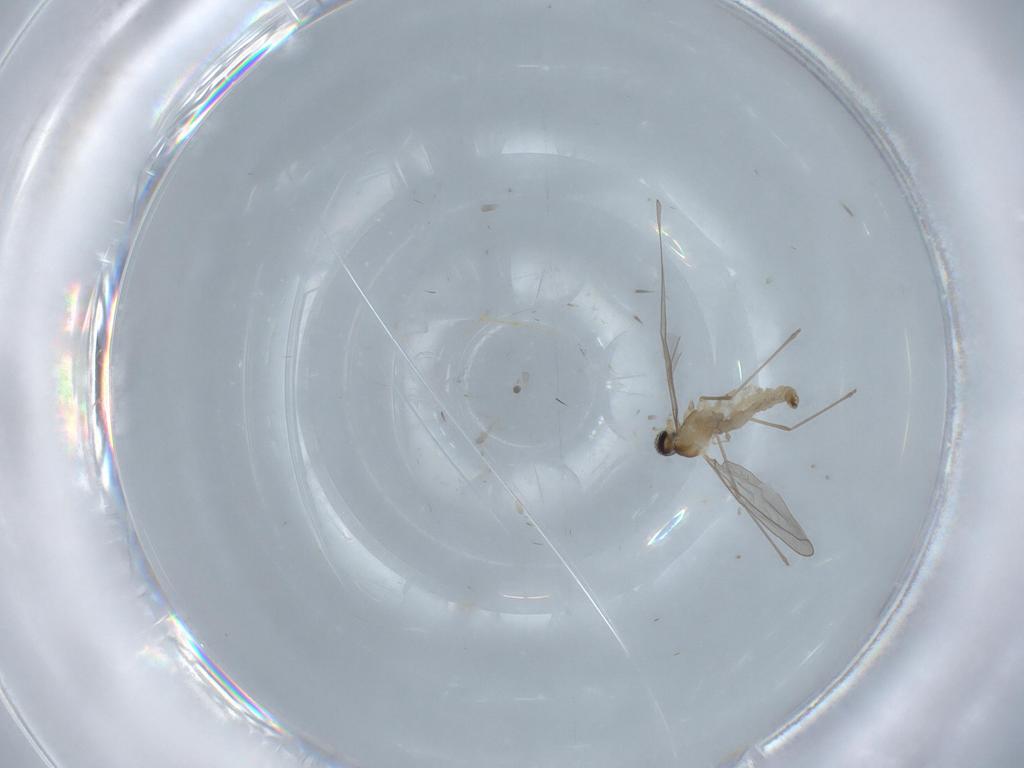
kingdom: Animalia
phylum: Arthropoda
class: Insecta
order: Diptera
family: Cecidomyiidae
